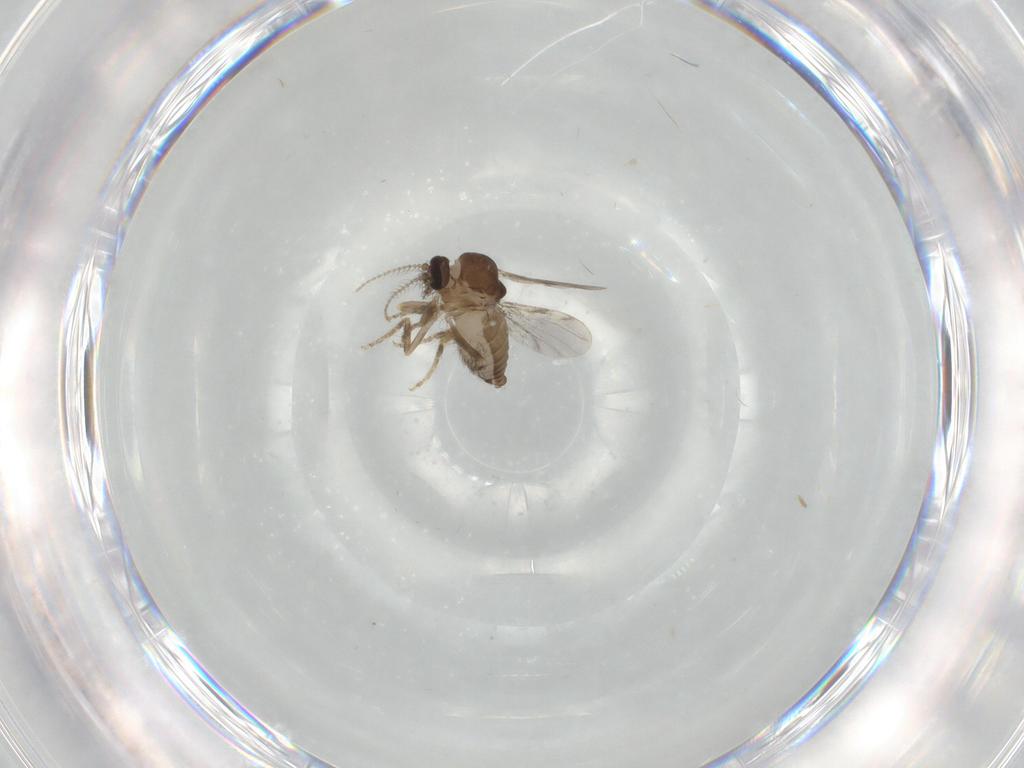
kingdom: Animalia
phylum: Arthropoda
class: Insecta
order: Diptera
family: Ceratopogonidae
